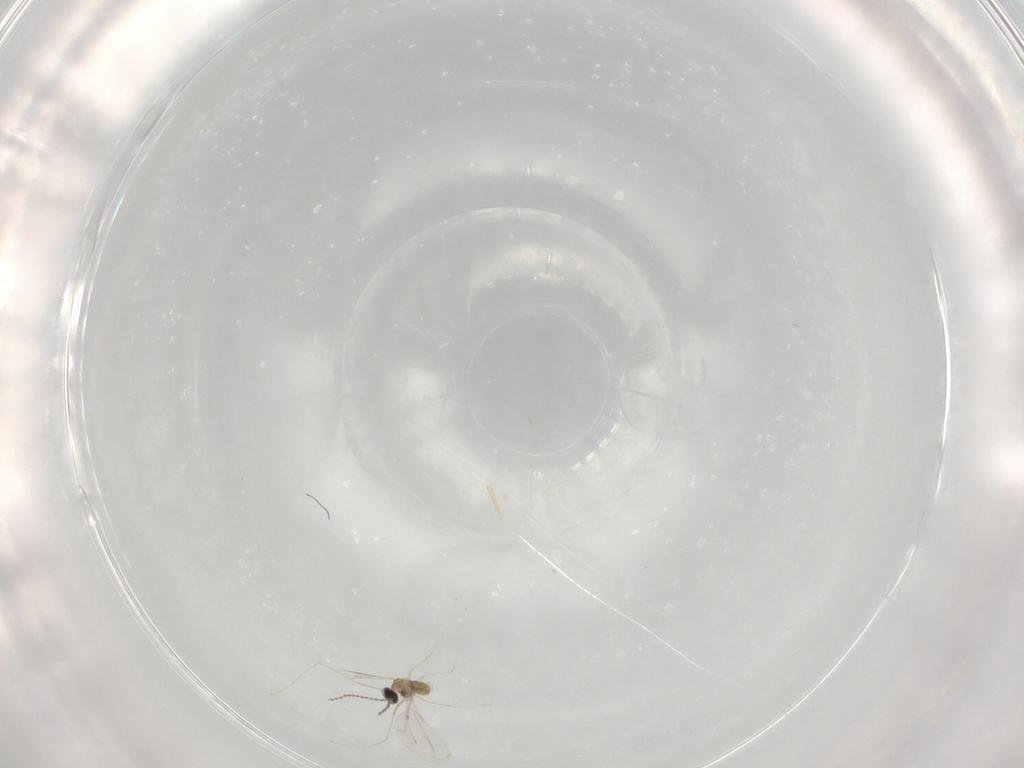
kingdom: Animalia
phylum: Arthropoda
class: Insecta
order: Diptera
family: Cecidomyiidae
